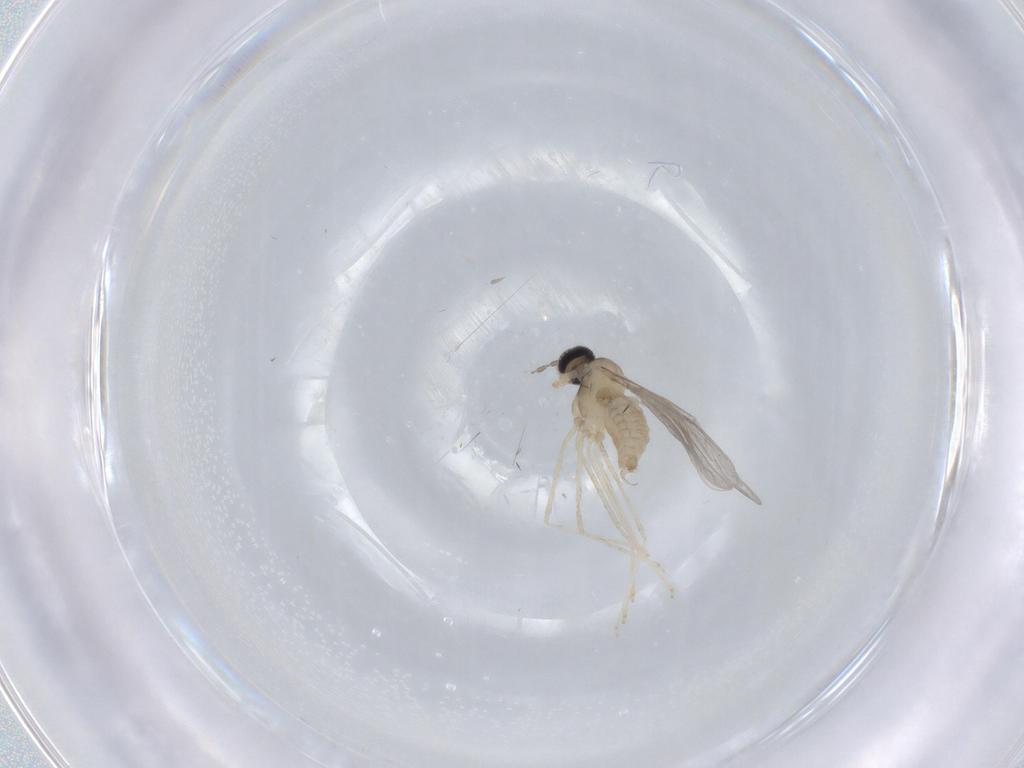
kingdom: Animalia
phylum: Arthropoda
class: Insecta
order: Diptera
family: Cecidomyiidae
